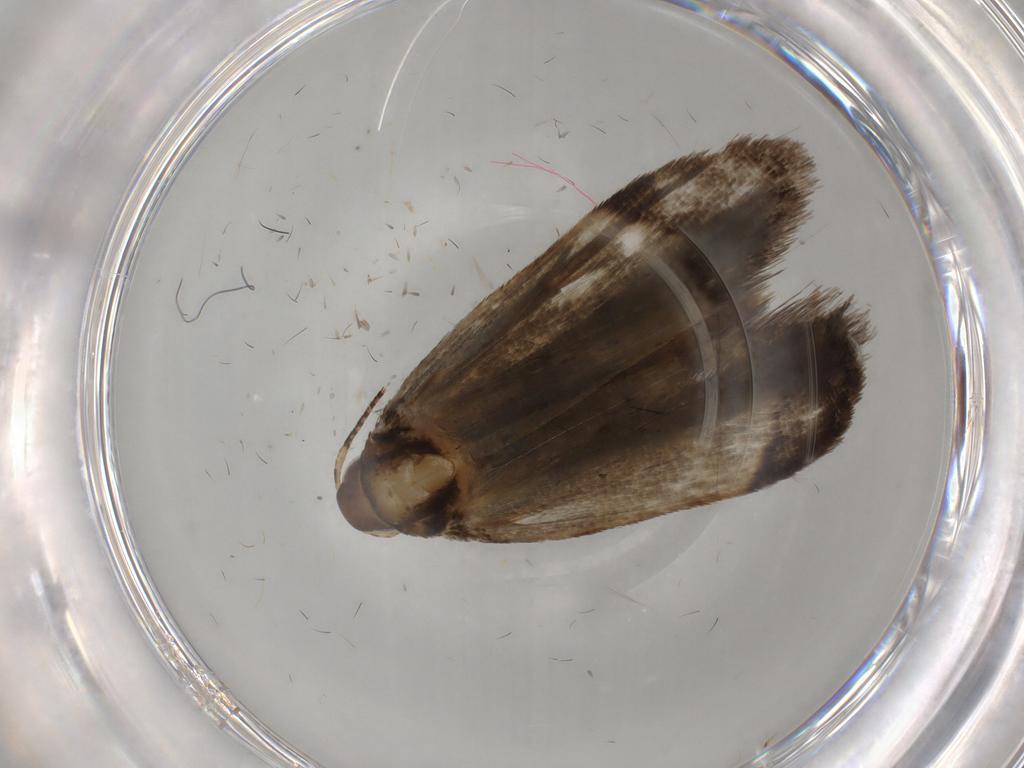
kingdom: Animalia
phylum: Arthropoda
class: Insecta
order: Lepidoptera
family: Gelechiidae
